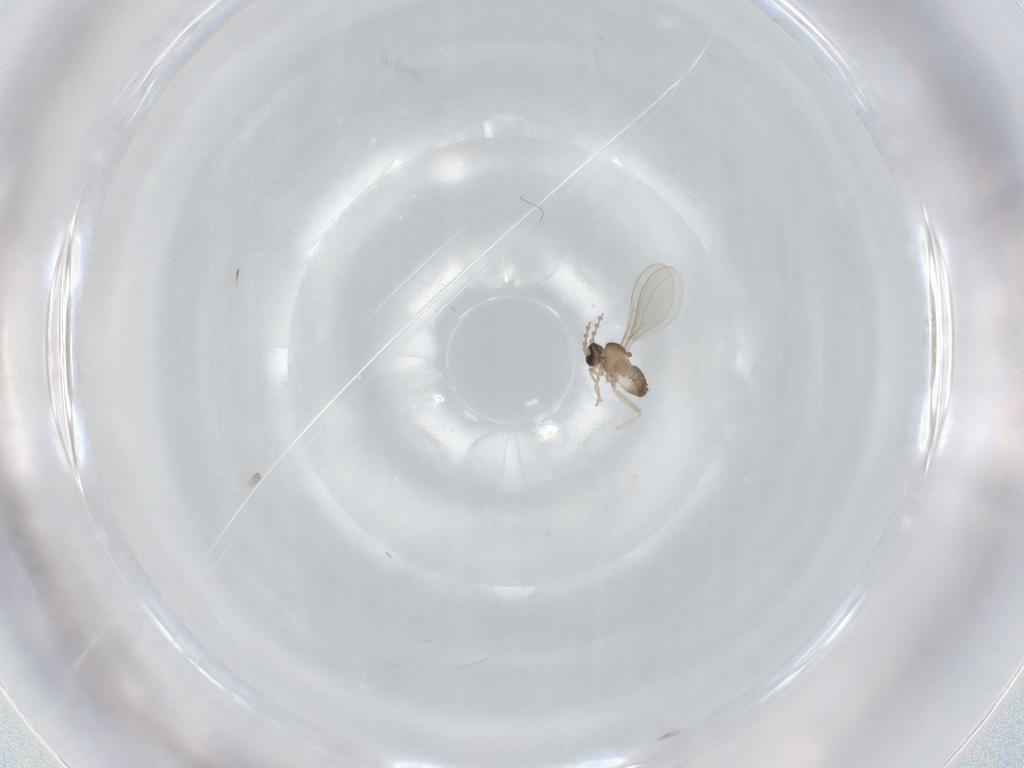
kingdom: Animalia
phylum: Arthropoda
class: Insecta
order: Diptera
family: Cecidomyiidae
